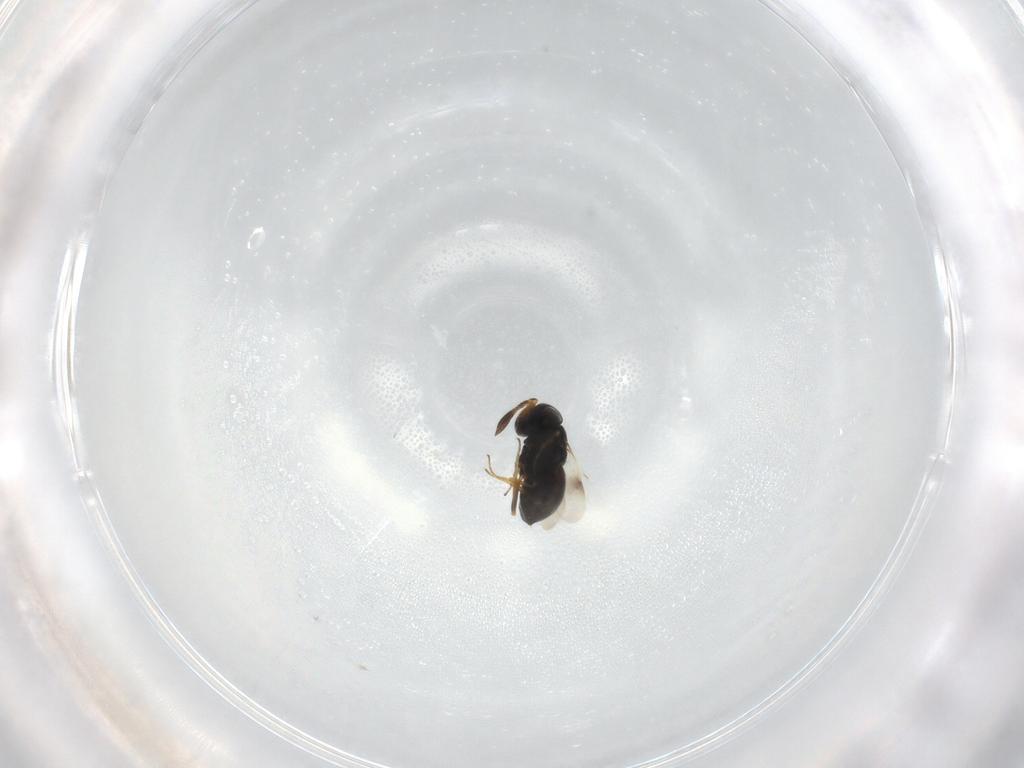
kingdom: Animalia
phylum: Arthropoda
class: Insecta
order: Hymenoptera
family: Scelionidae
